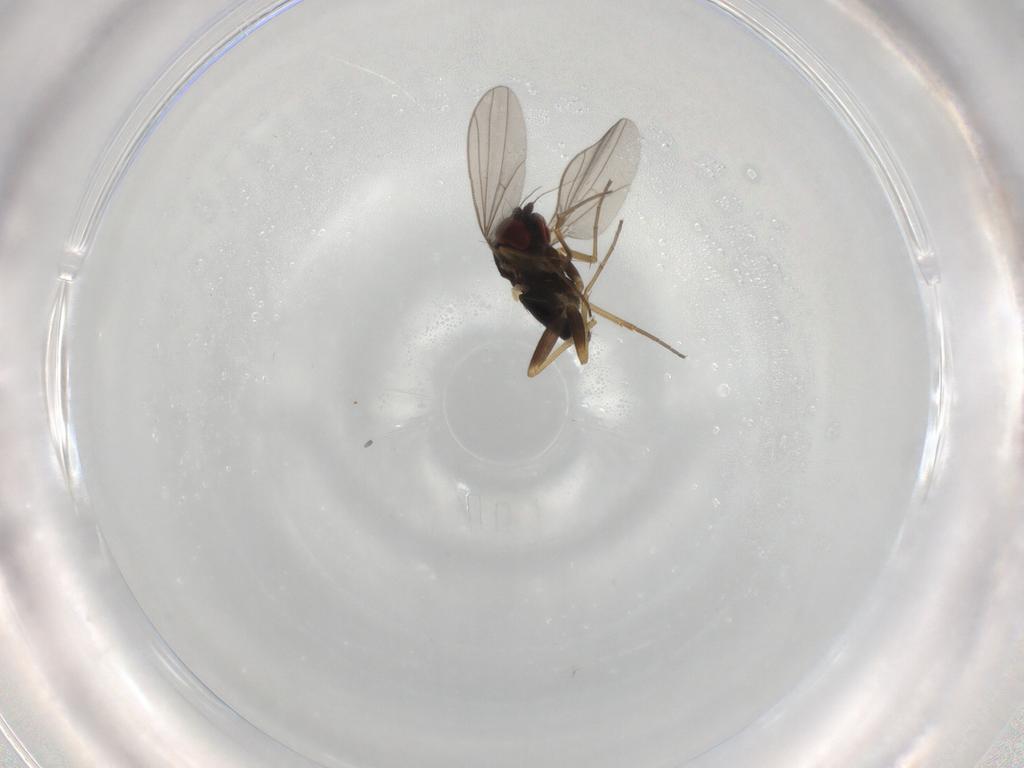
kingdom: Animalia
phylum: Arthropoda
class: Insecta
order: Diptera
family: Dolichopodidae
